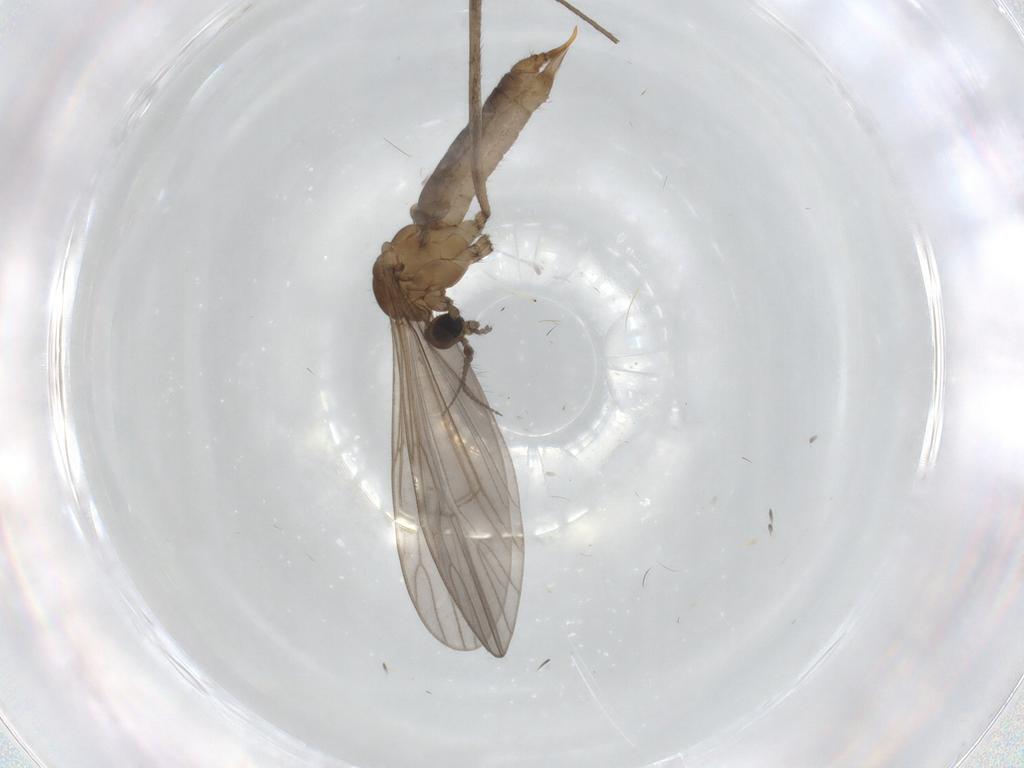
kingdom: Animalia
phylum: Arthropoda
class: Insecta
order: Diptera
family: Limoniidae
